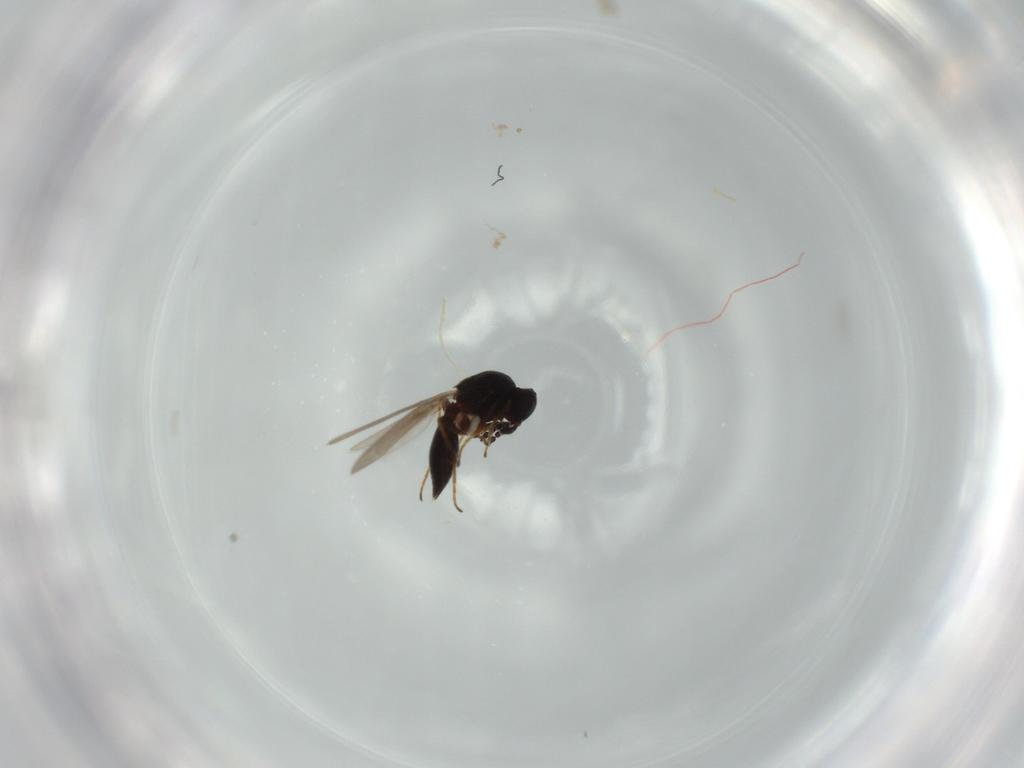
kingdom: Animalia
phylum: Arthropoda
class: Insecta
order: Hymenoptera
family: Platygastridae
